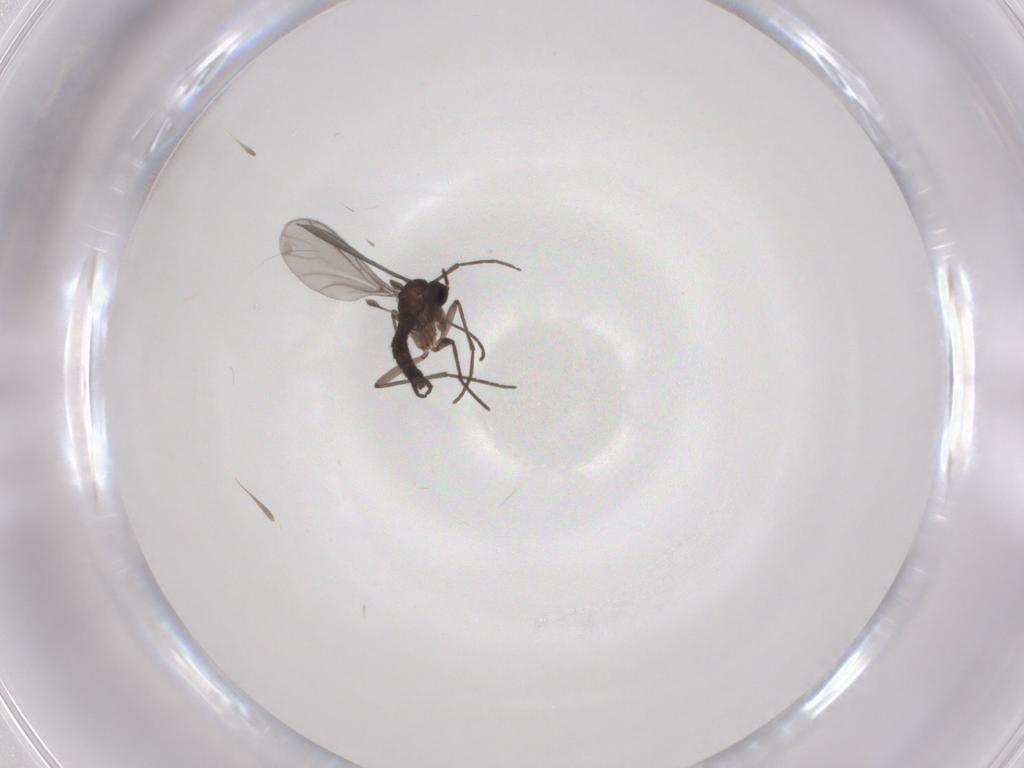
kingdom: Animalia
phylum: Arthropoda
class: Insecta
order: Diptera
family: Sciaridae
